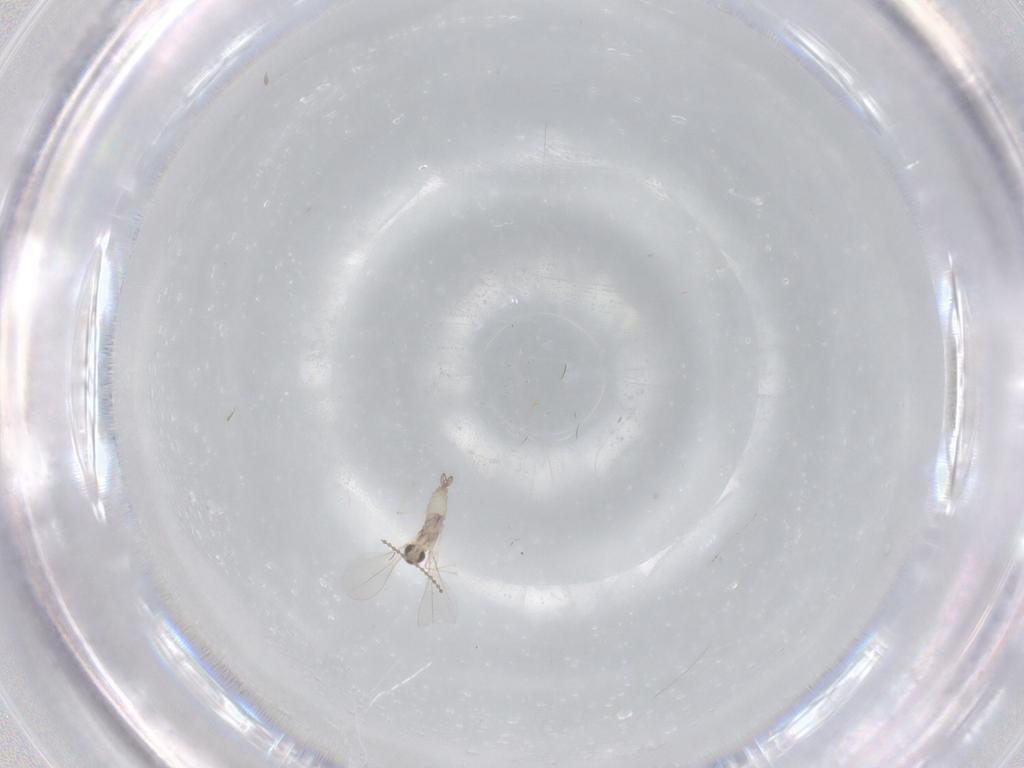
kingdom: Animalia
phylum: Arthropoda
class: Insecta
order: Diptera
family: Cecidomyiidae
